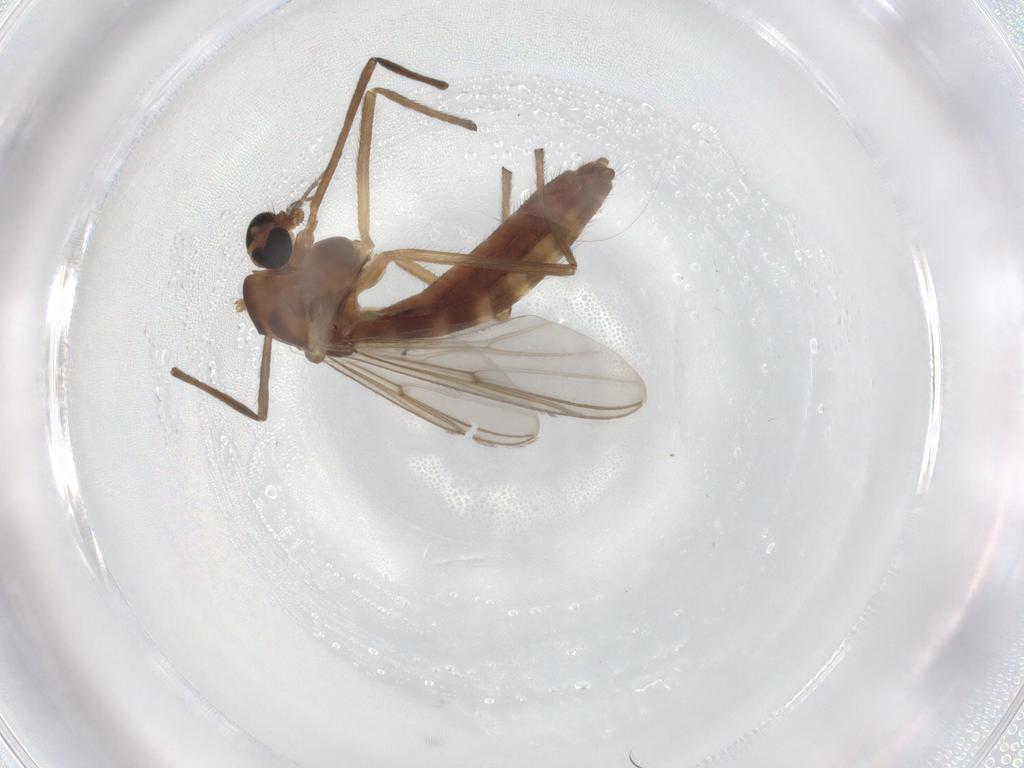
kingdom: Animalia
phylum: Arthropoda
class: Insecta
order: Diptera
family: Chironomidae
